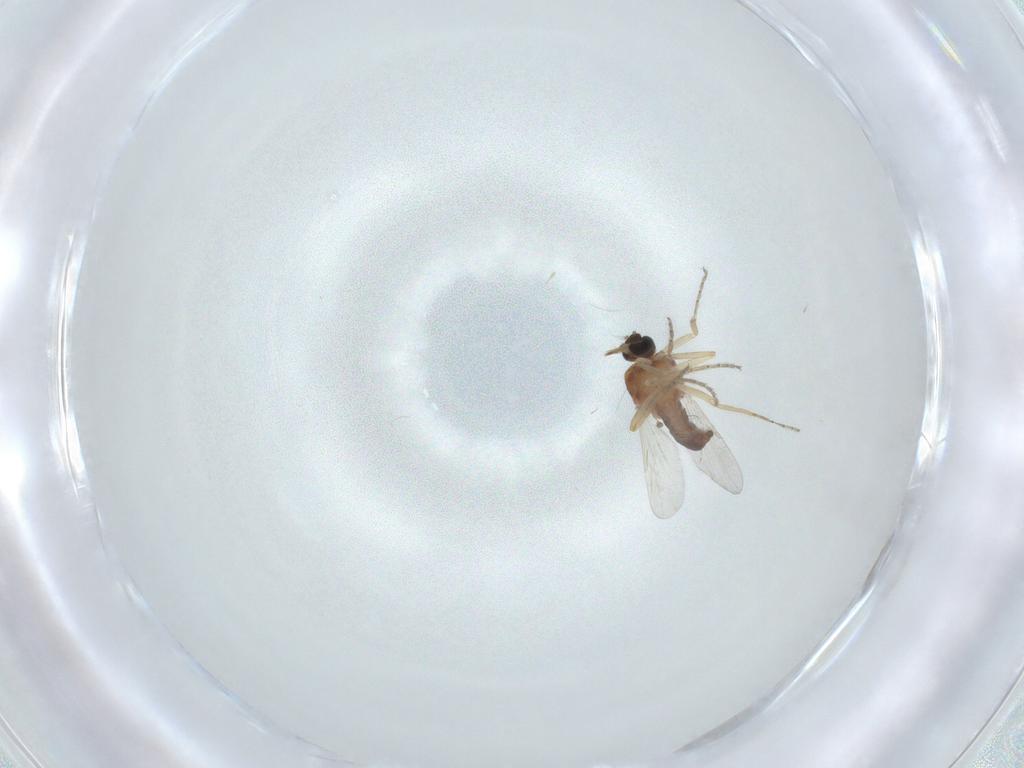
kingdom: Animalia
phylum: Arthropoda
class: Insecta
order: Diptera
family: Ceratopogonidae
